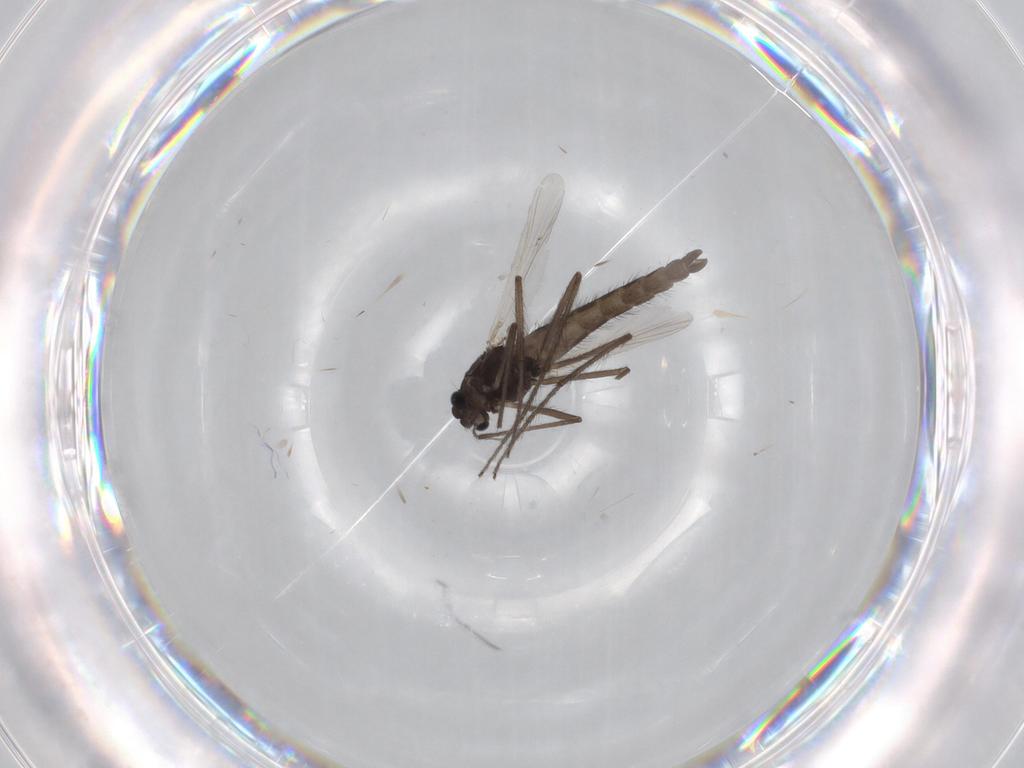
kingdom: Animalia
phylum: Arthropoda
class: Insecta
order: Diptera
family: Chironomidae
